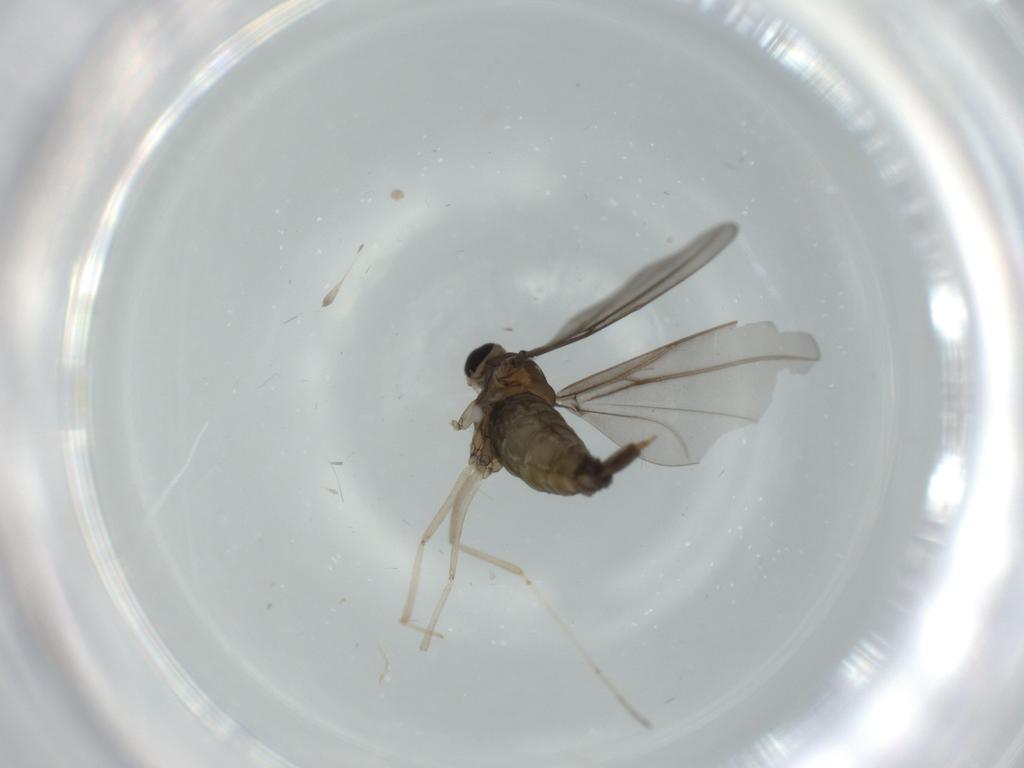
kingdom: Animalia
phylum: Arthropoda
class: Insecta
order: Diptera
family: Cecidomyiidae
